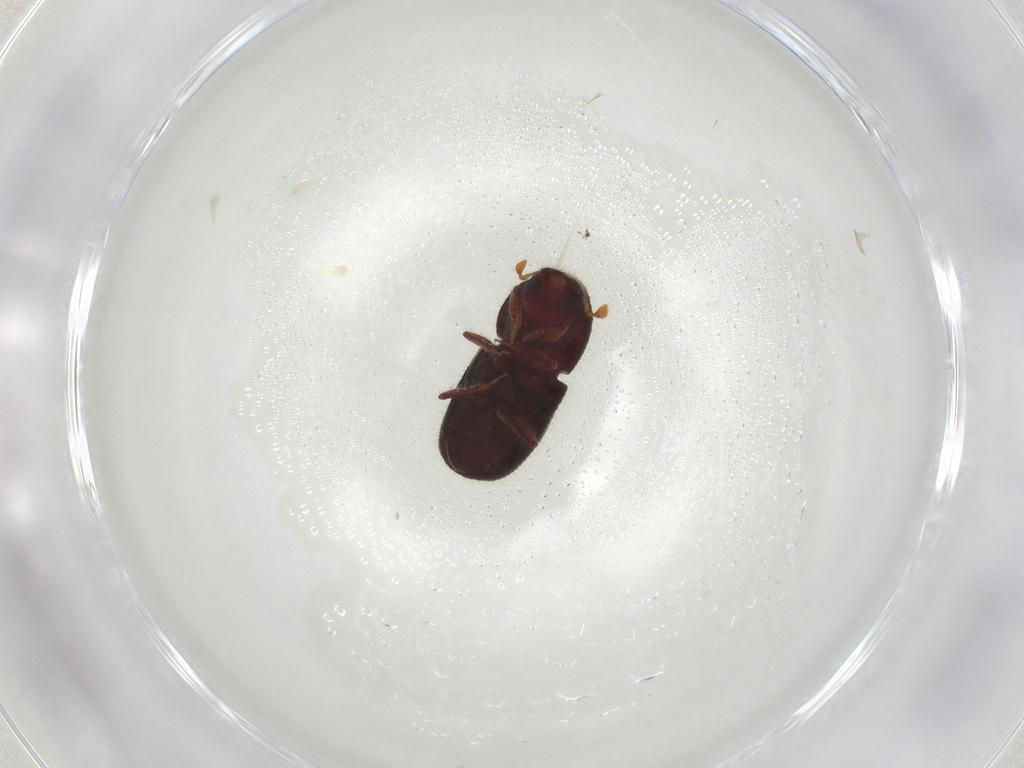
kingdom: Animalia
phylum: Arthropoda
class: Collembola
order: Symphypleona
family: Katiannidae
